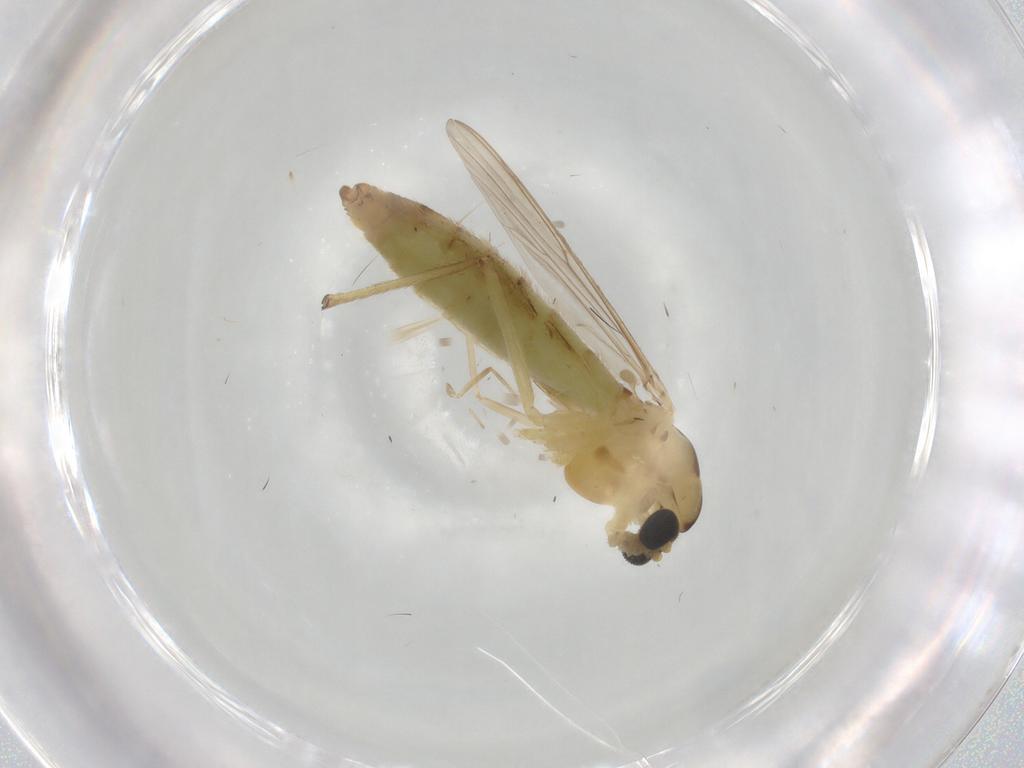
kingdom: Animalia
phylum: Arthropoda
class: Insecta
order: Diptera
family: Chironomidae
